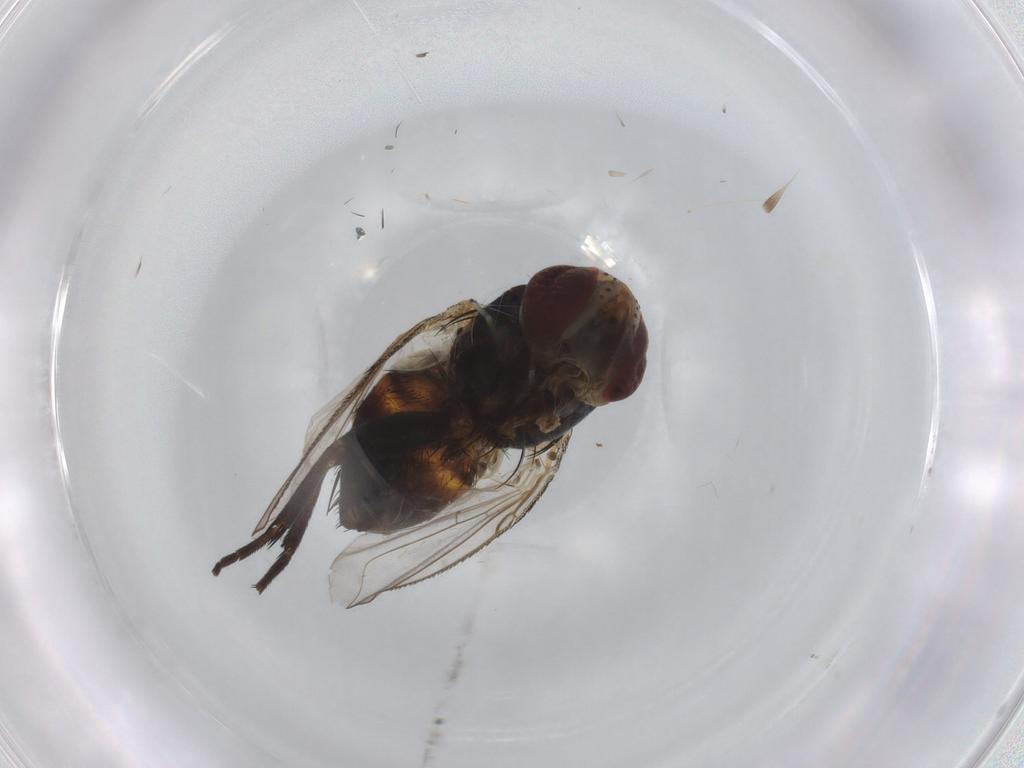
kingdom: Animalia
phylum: Arthropoda
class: Insecta
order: Diptera
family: Chloropidae
